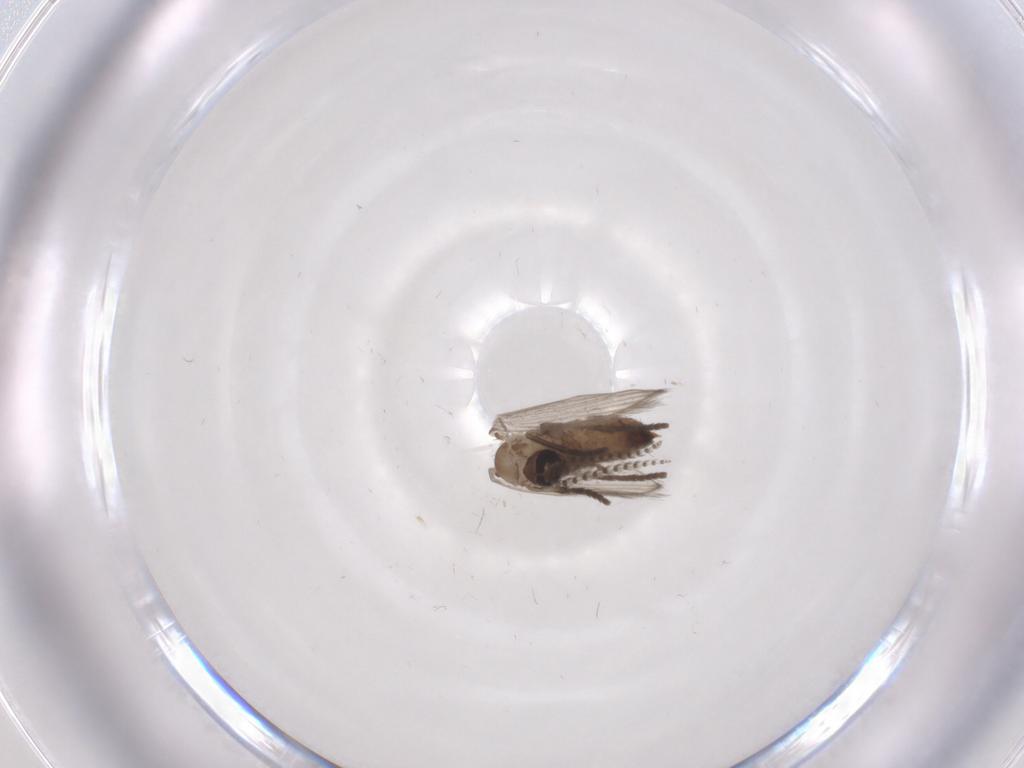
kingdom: Animalia
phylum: Arthropoda
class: Insecta
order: Diptera
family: Psychodidae
